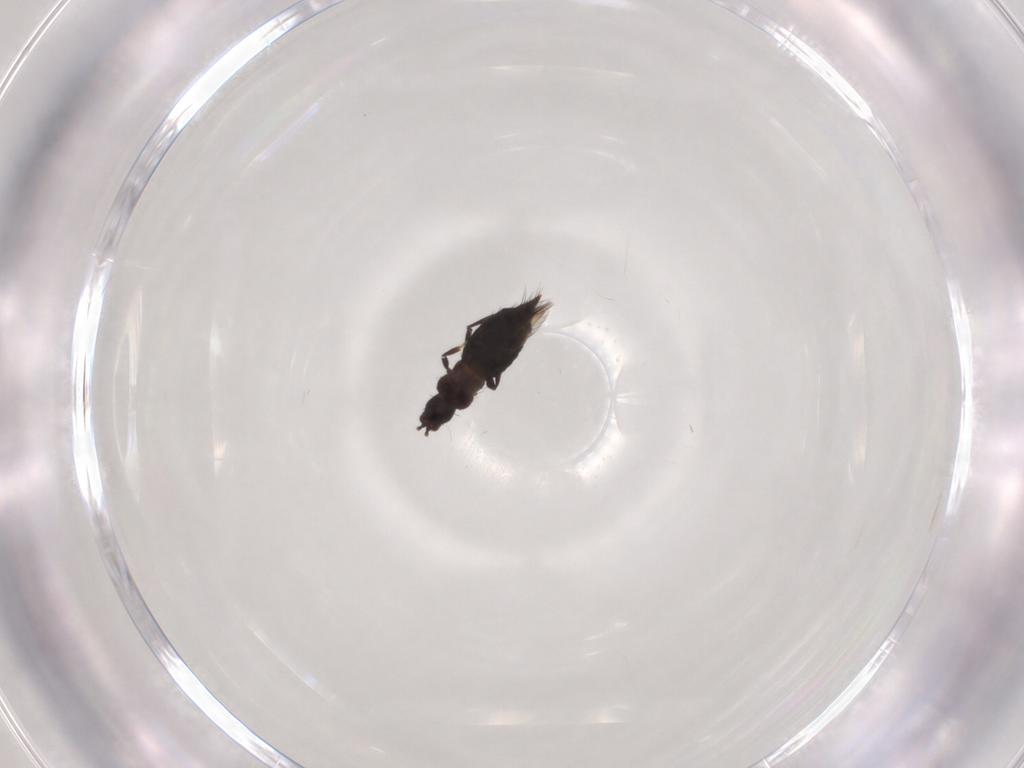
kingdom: Animalia
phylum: Arthropoda
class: Insecta
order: Thysanoptera
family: Thripidae
